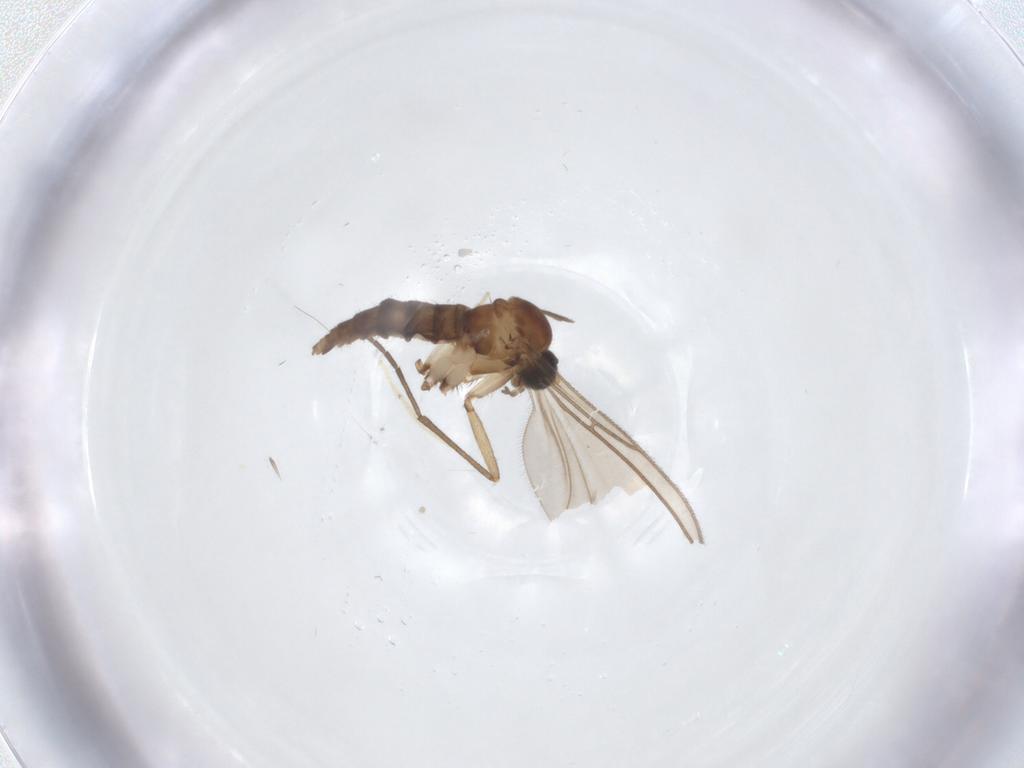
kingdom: Animalia
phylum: Arthropoda
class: Insecta
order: Diptera
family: Sciaridae
